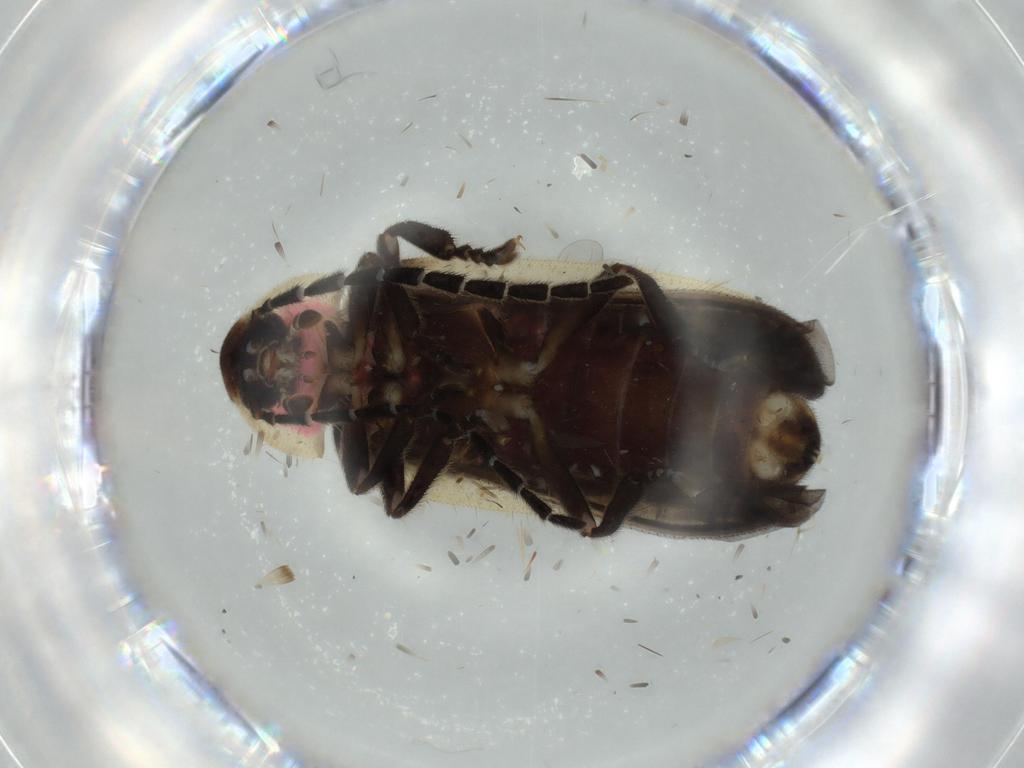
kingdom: Animalia
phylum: Arthropoda
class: Insecta
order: Coleoptera
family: Lampyridae
